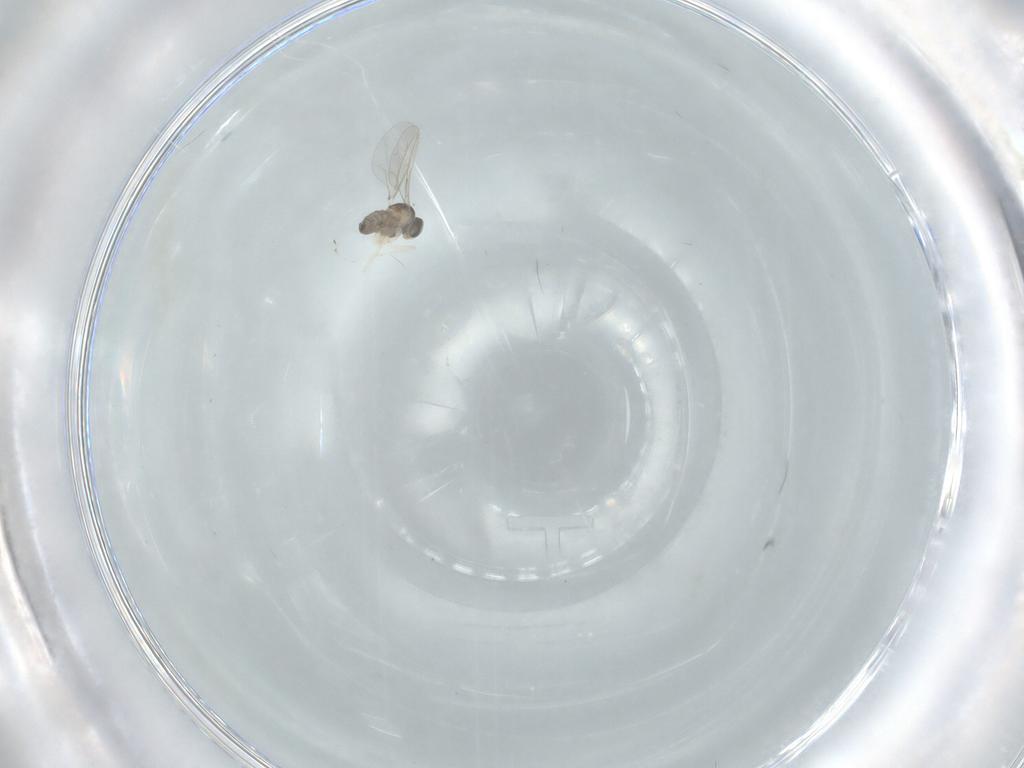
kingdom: Animalia
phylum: Arthropoda
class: Insecta
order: Diptera
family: Cecidomyiidae
